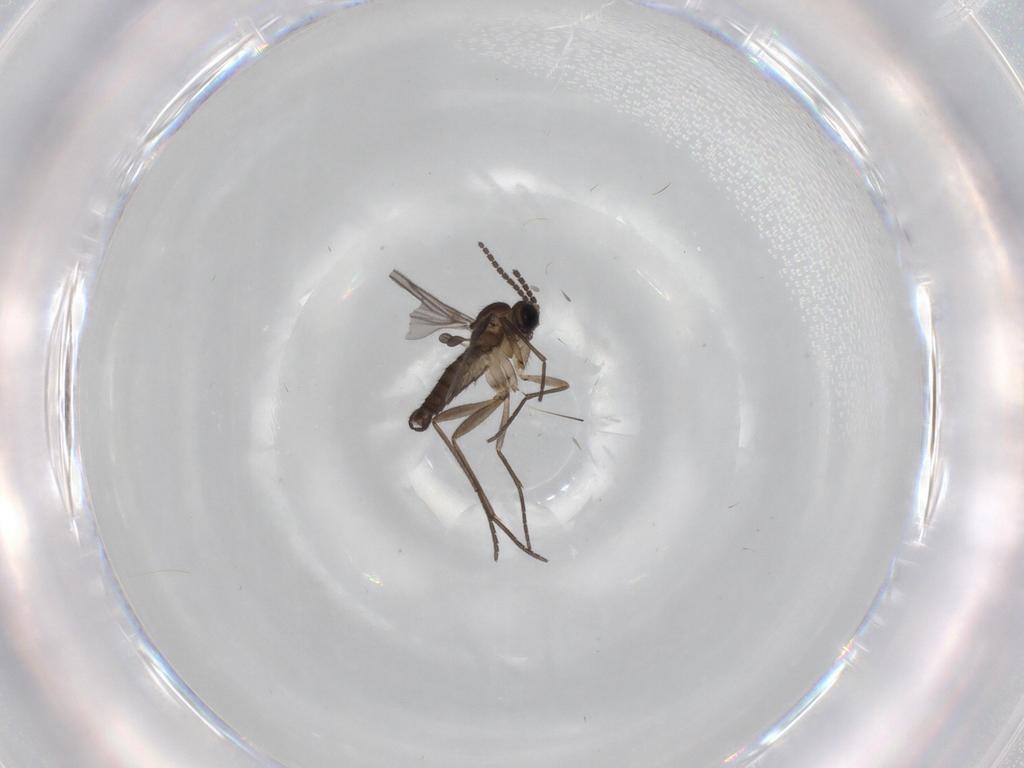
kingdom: Animalia
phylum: Arthropoda
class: Insecta
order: Diptera
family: Sciaridae
